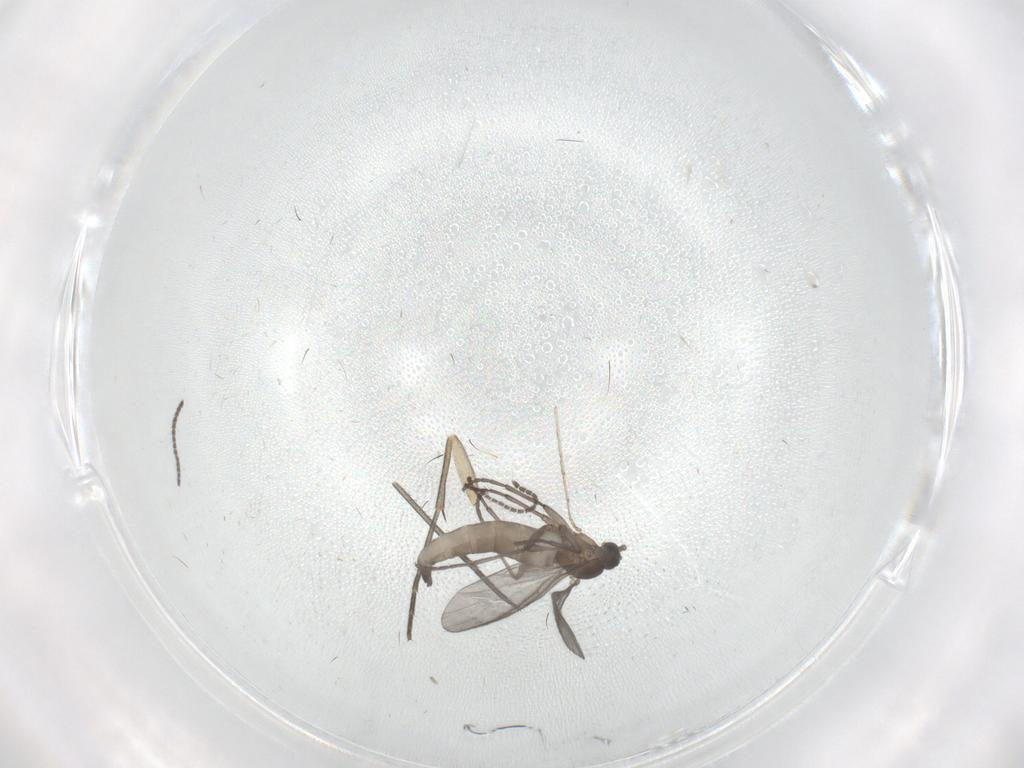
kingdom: Animalia
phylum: Arthropoda
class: Insecta
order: Diptera
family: Sciaridae
